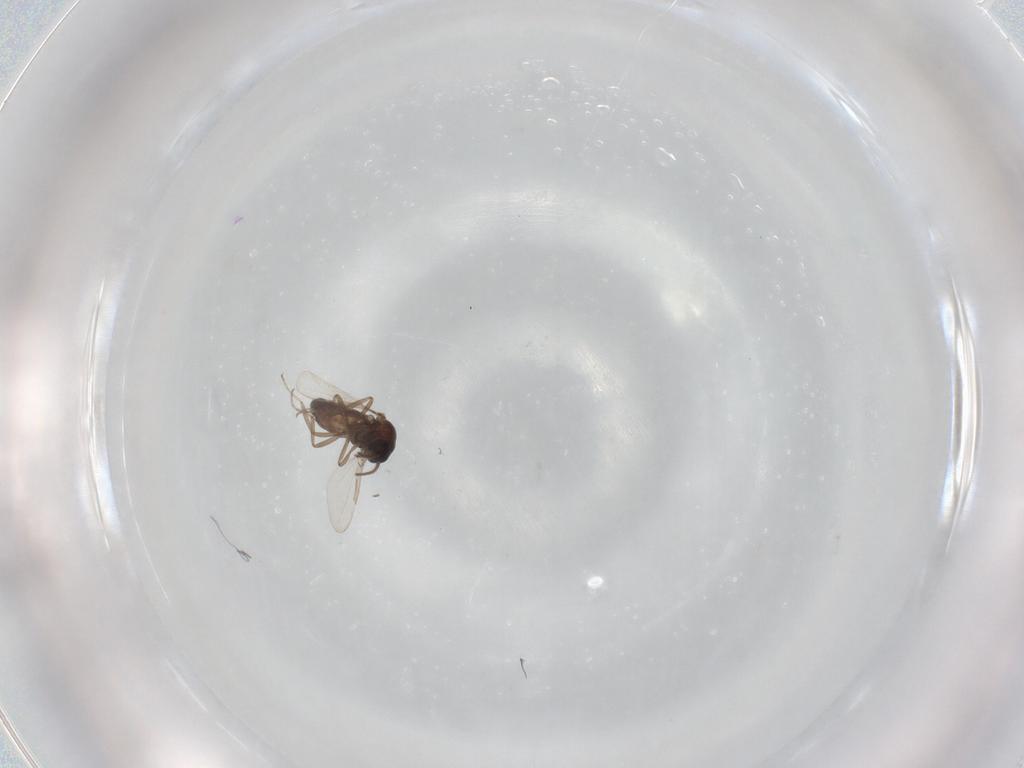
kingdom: Animalia
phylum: Arthropoda
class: Insecta
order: Diptera
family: Ceratopogonidae
